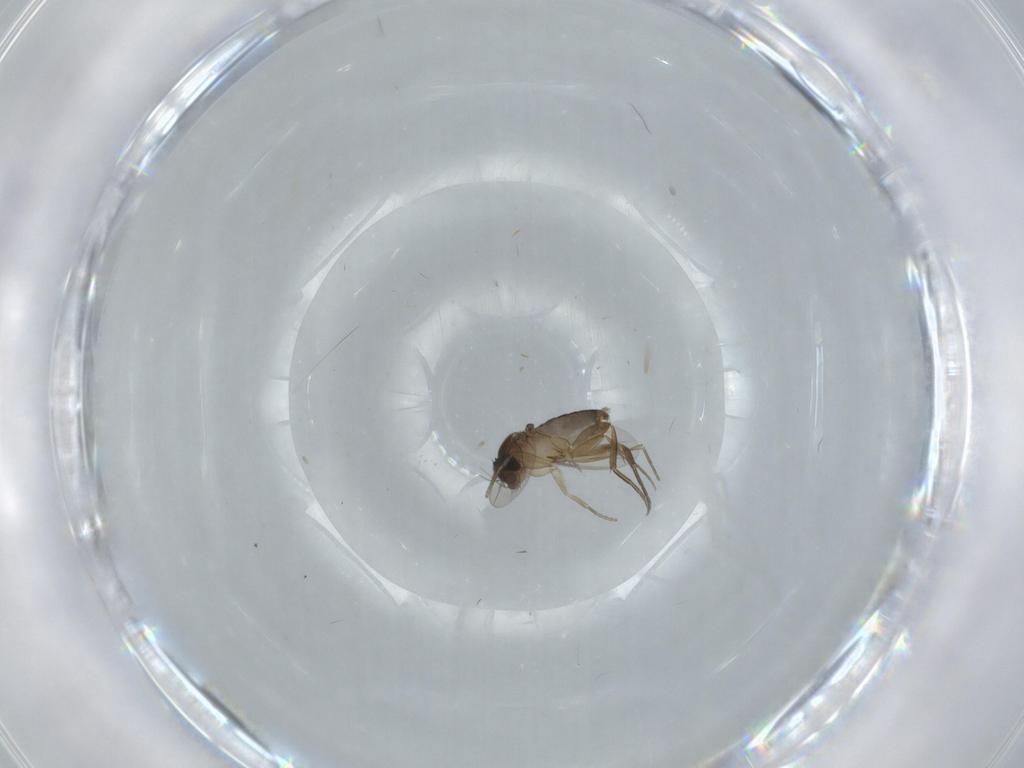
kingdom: Animalia
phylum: Arthropoda
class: Insecta
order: Diptera
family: Phoridae
